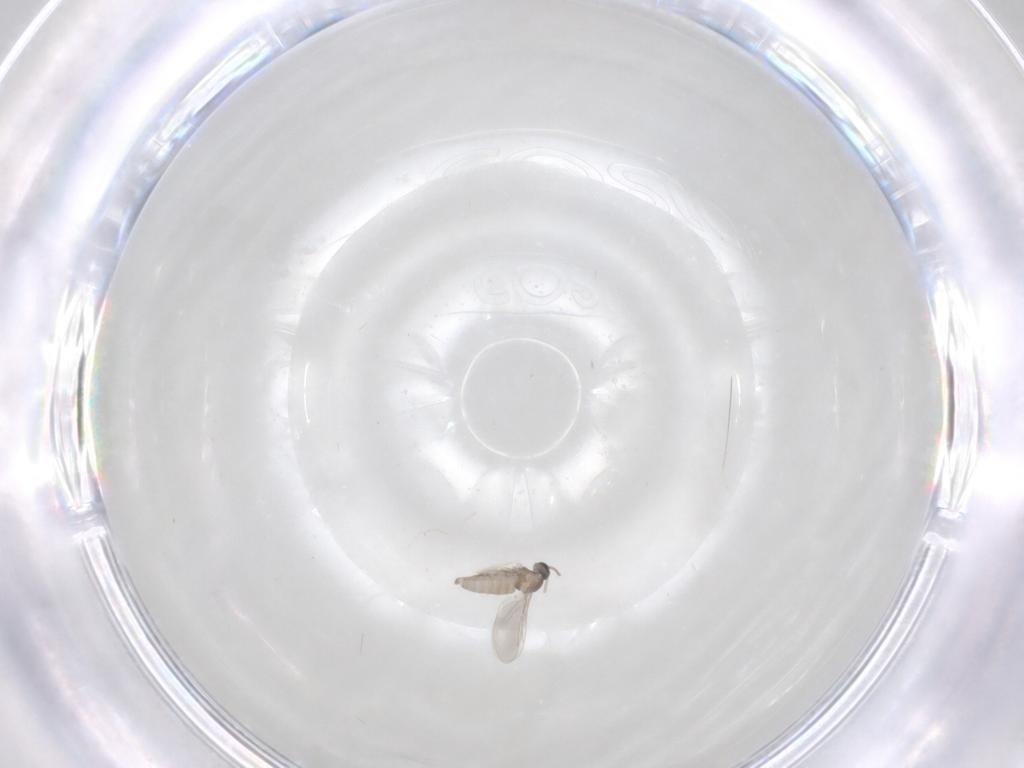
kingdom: Animalia
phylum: Arthropoda
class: Insecta
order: Diptera
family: Cecidomyiidae
